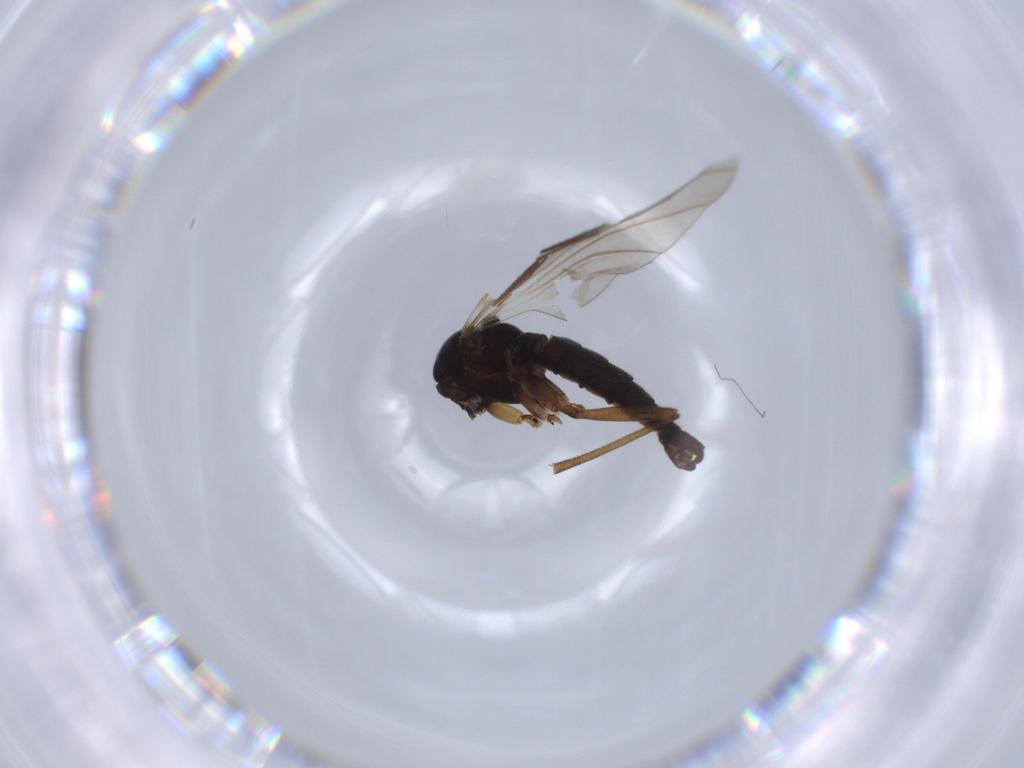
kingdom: Animalia
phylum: Arthropoda
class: Insecta
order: Diptera
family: Sciaridae
